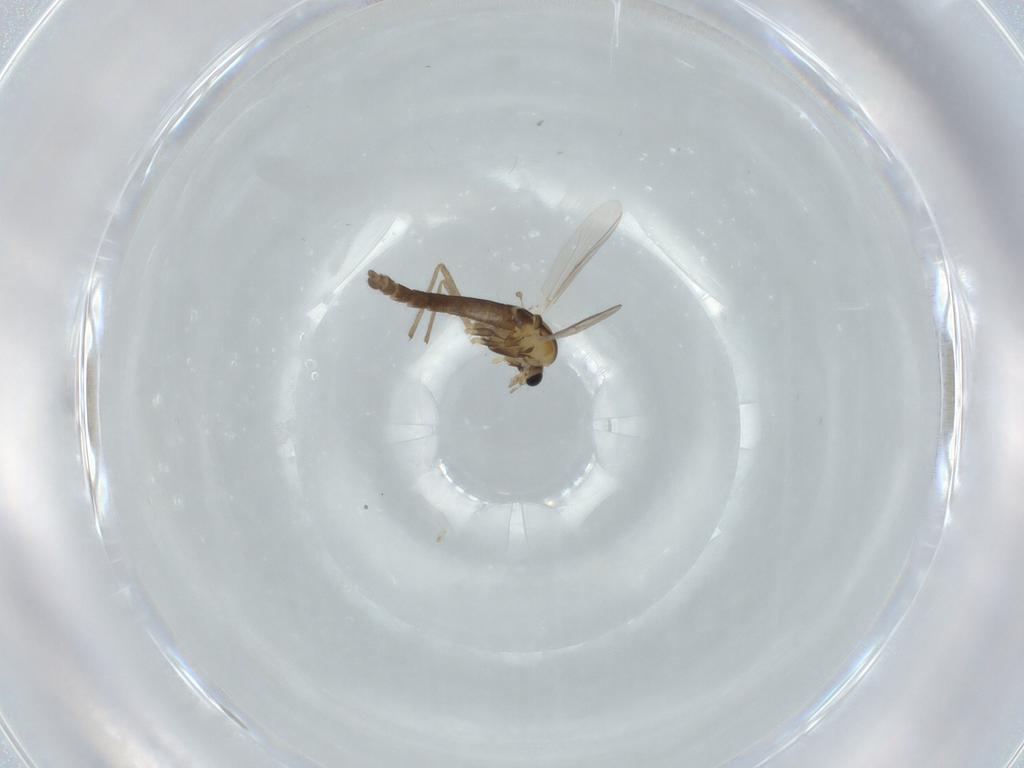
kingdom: Animalia
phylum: Arthropoda
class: Insecta
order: Diptera
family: Chironomidae
